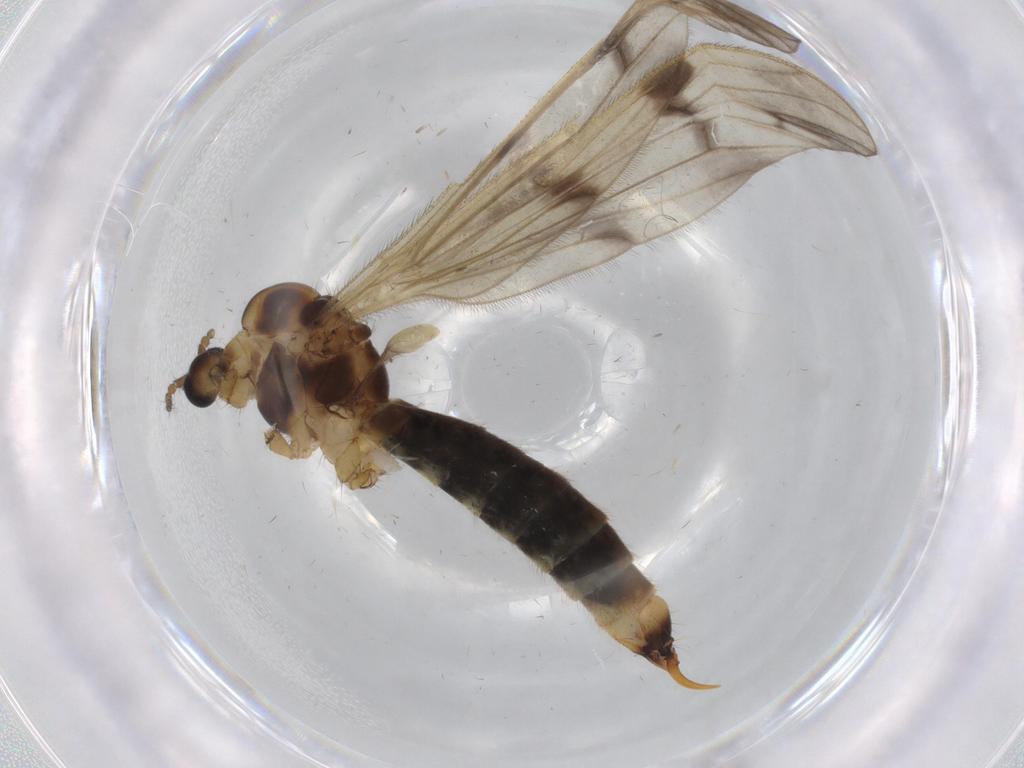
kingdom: Animalia
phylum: Arthropoda
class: Insecta
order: Diptera
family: Limoniidae
